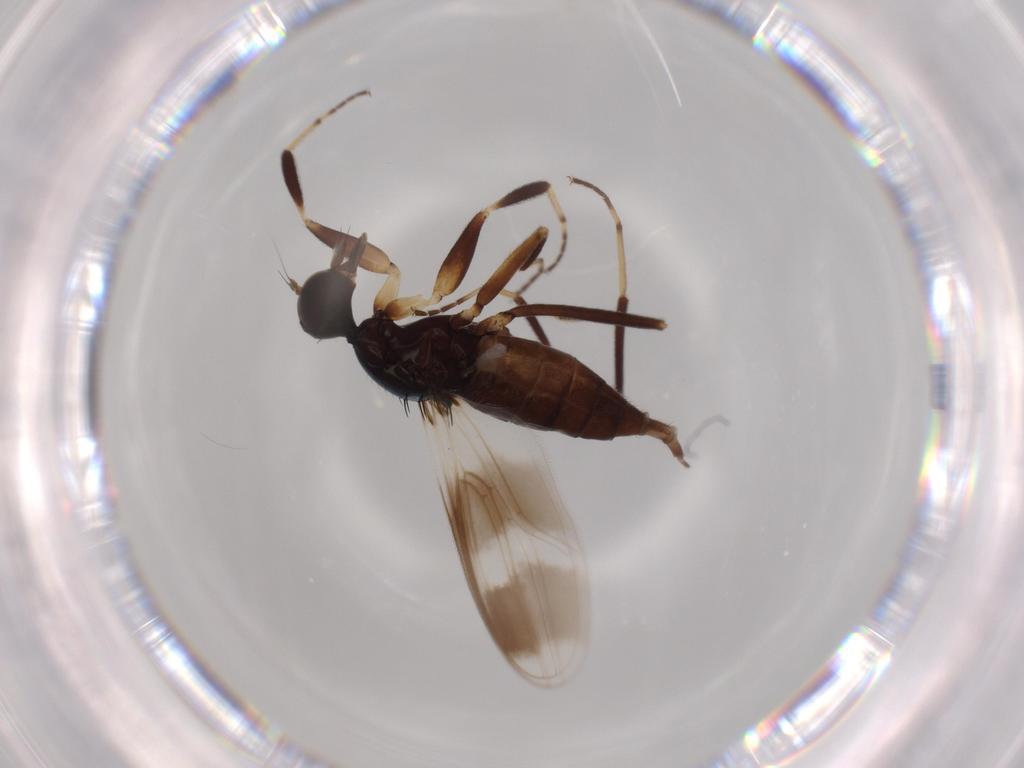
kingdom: Animalia
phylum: Arthropoda
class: Insecta
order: Diptera
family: Hybotidae
